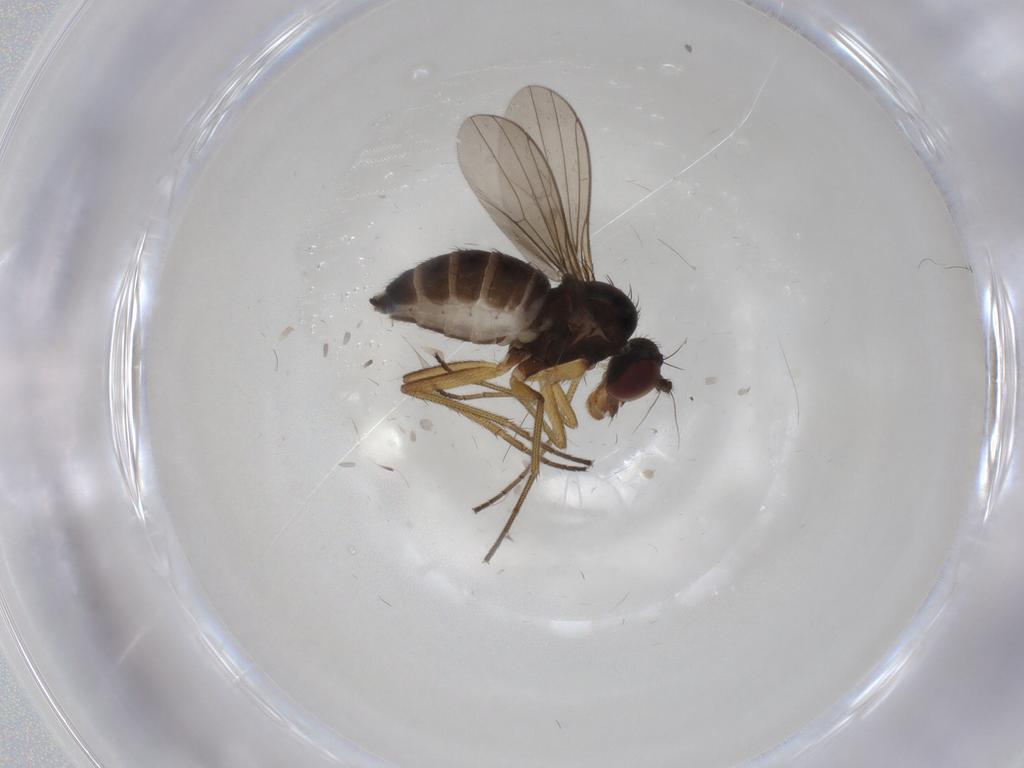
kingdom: Animalia
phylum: Arthropoda
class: Insecta
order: Diptera
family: Dolichopodidae
